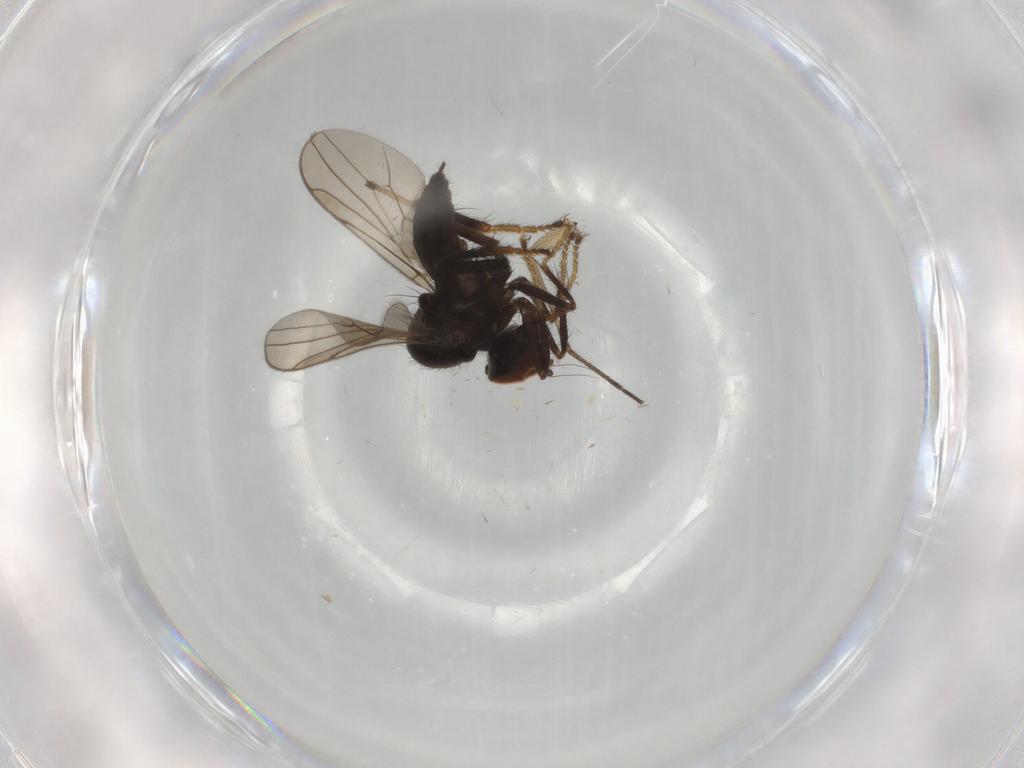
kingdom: Animalia
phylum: Arthropoda
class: Insecta
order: Diptera
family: Hybotidae
